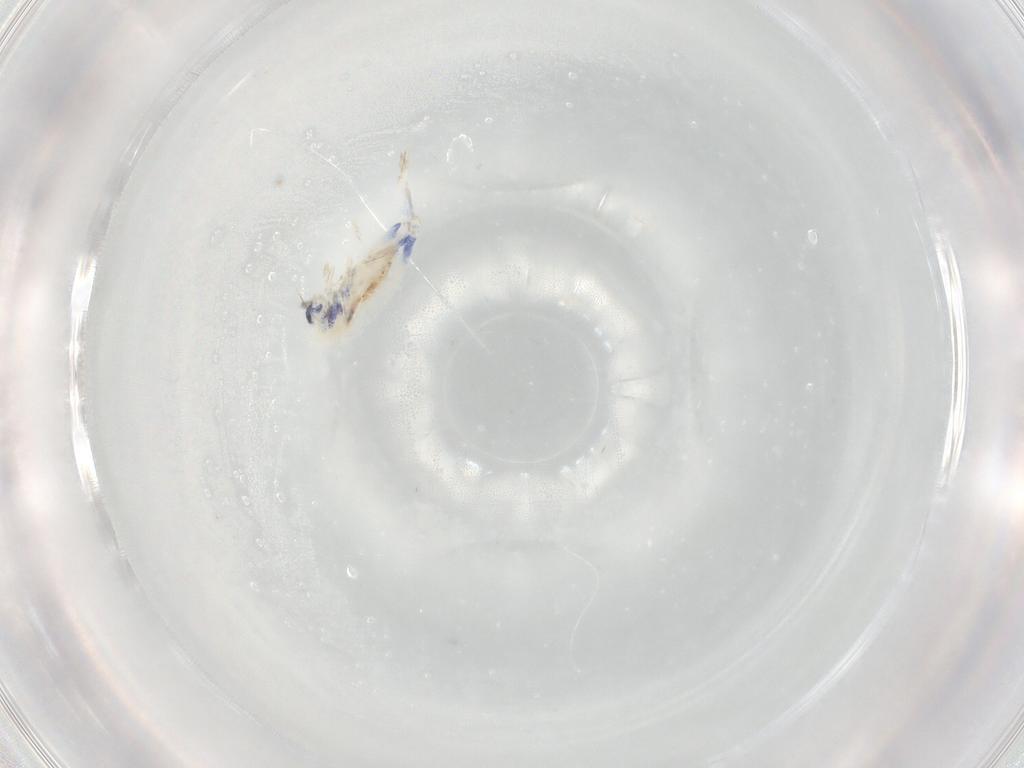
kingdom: Animalia
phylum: Arthropoda
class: Collembola
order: Entomobryomorpha
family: Entomobryidae
